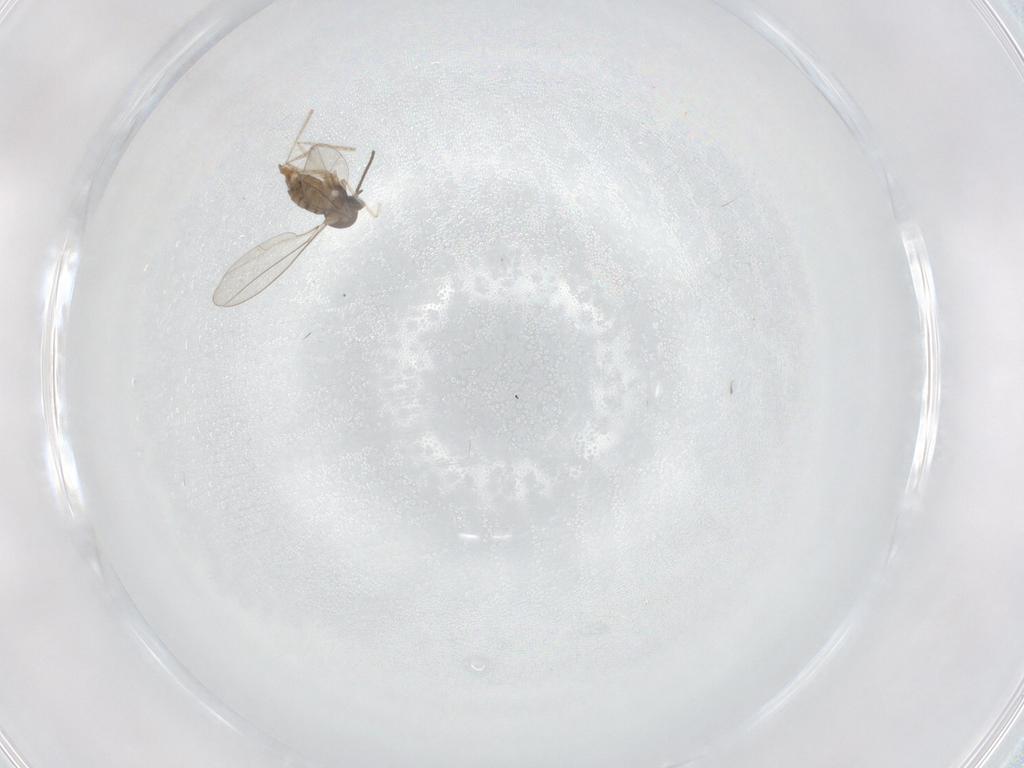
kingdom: Animalia
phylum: Arthropoda
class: Insecta
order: Diptera
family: Cecidomyiidae
